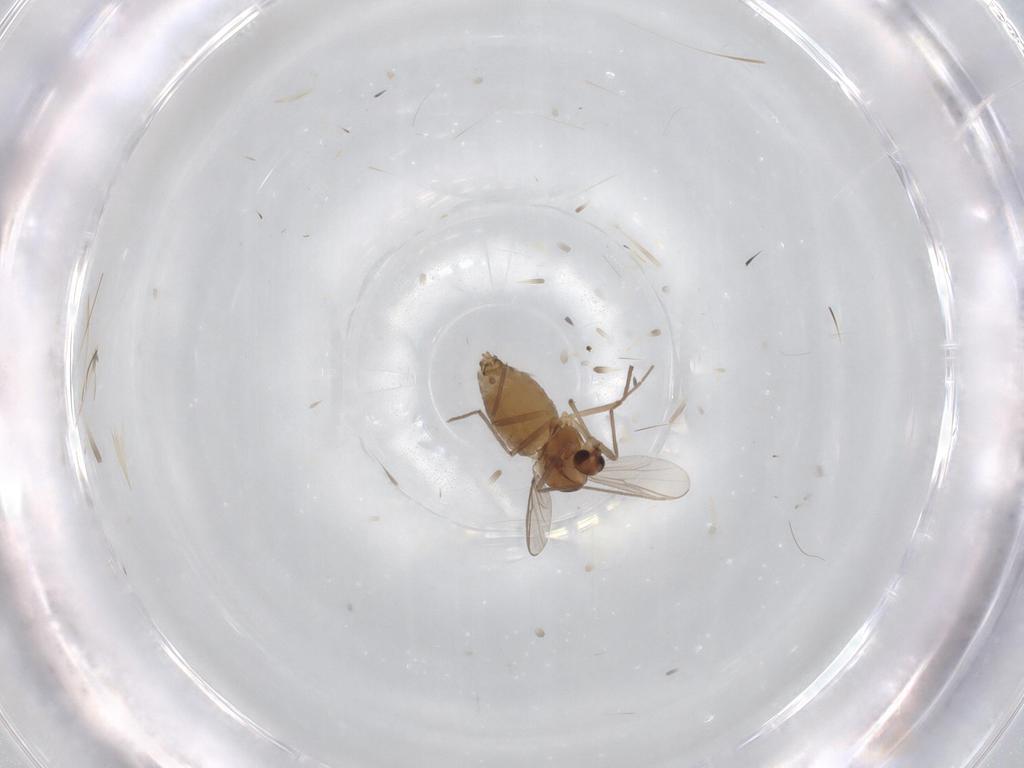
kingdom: Animalia
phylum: Arthropoda
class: Insecta
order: Diptera
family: Chironomidae
